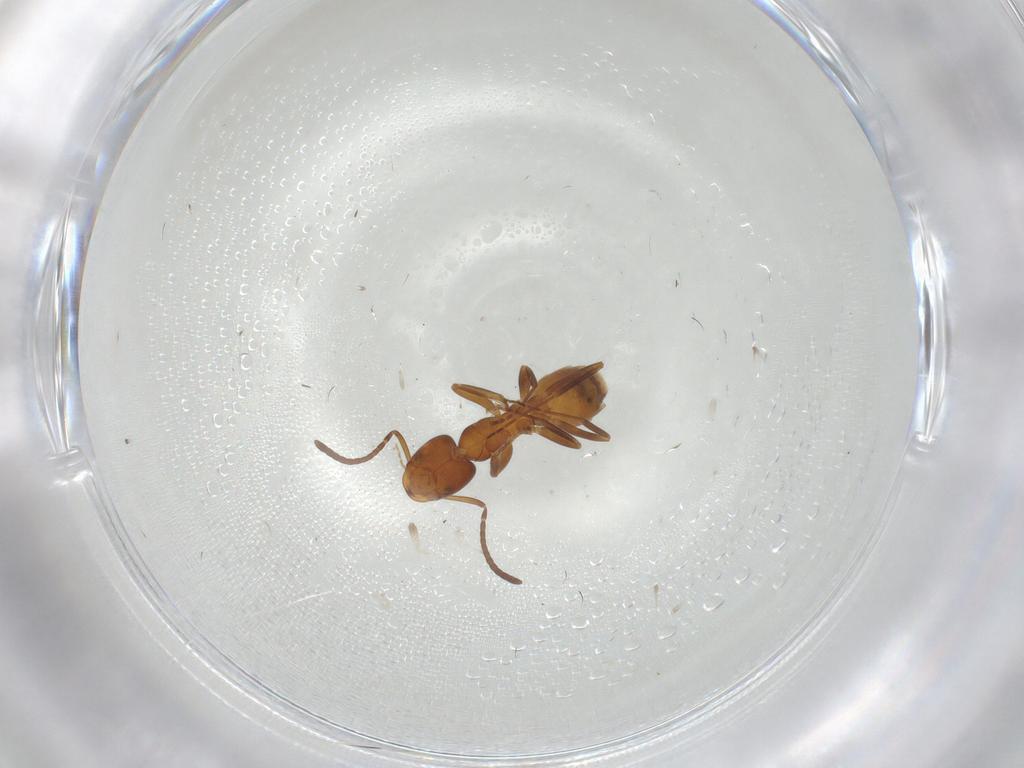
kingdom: Animalia
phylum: Arthropoda
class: Insecta
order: Hymenoptera
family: Formicidae
